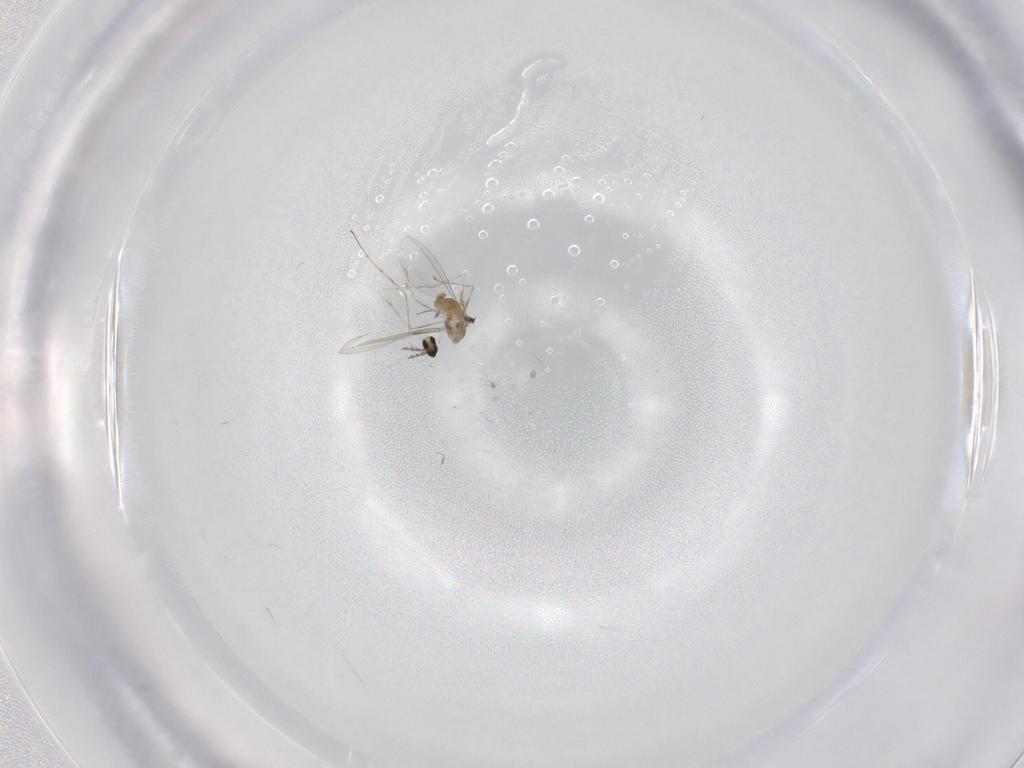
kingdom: Animalia
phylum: Arthropoda
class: Insecta
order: Diptera
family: Cecidomyiidae
